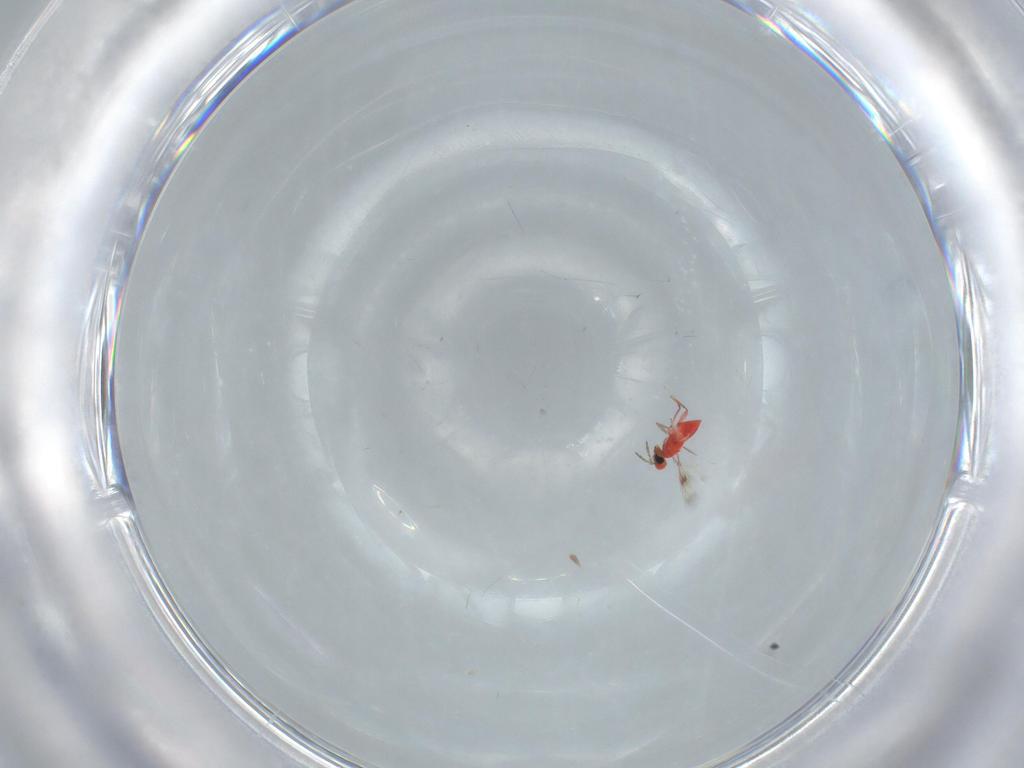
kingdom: Animalia
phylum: Arthropoda
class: Insecta
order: Hymenoptera
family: Trichogrammatidae
